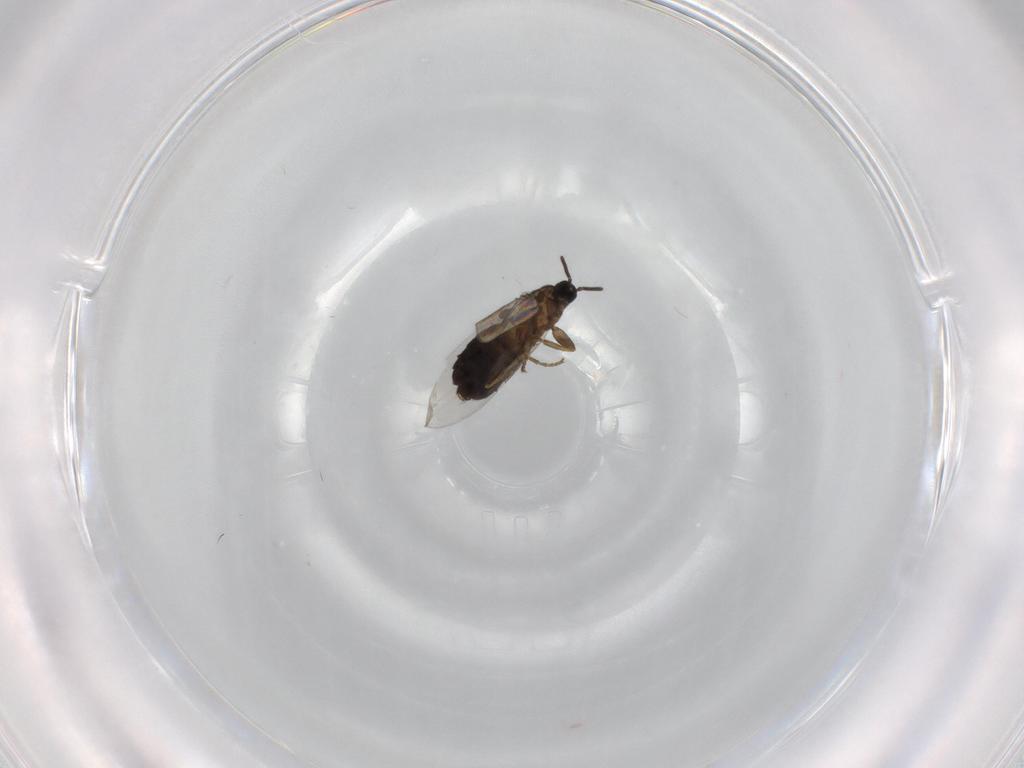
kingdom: Animalia
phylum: Arthropoda
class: Insecta
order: Diptera
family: Scatopsidae
